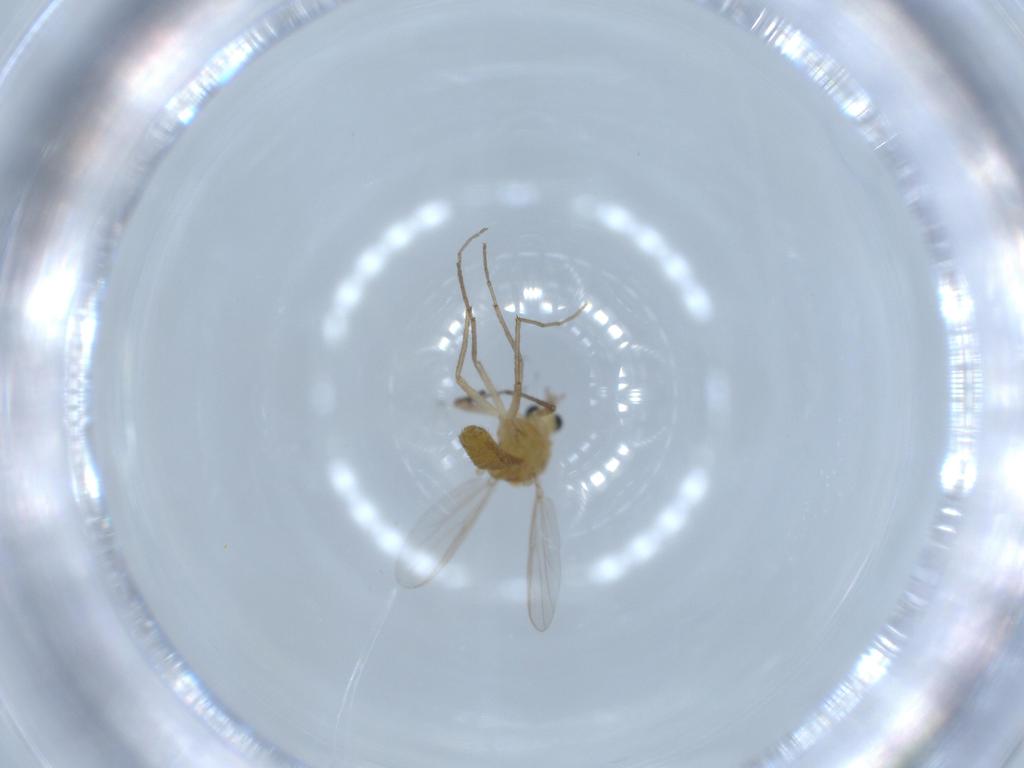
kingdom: Animalia
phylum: Arthropoda
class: Insecta
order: Diptera
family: Chironomidae
